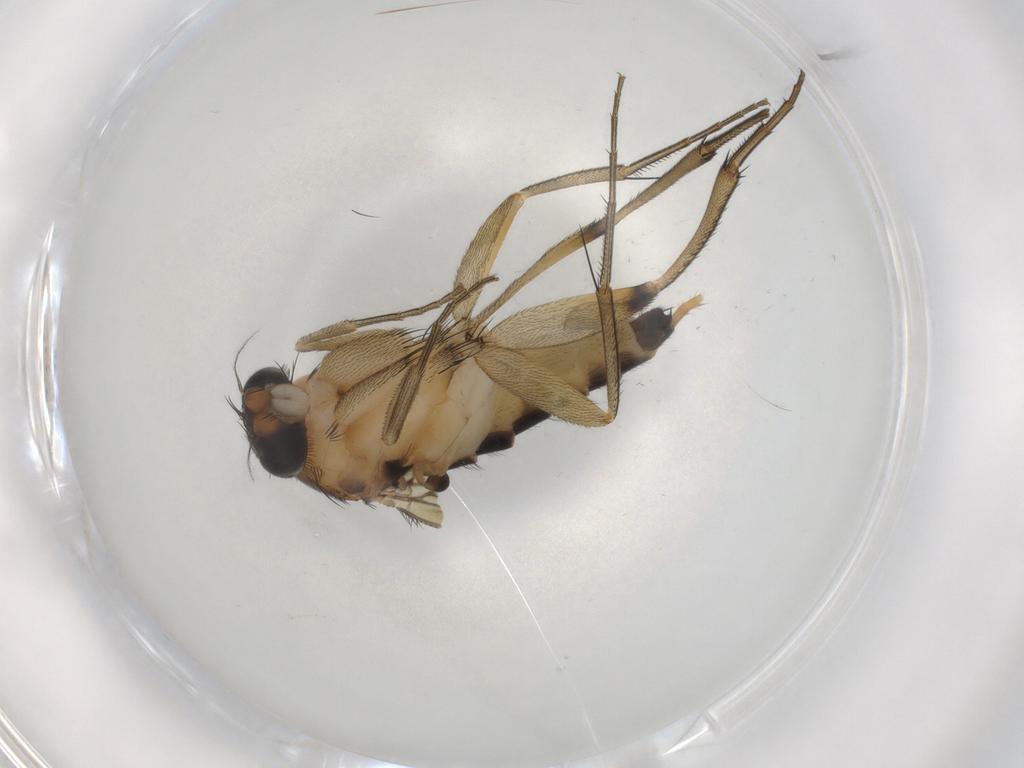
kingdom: Animalia
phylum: Arthropoda
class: Insecta
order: Diptera
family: Phoridae
